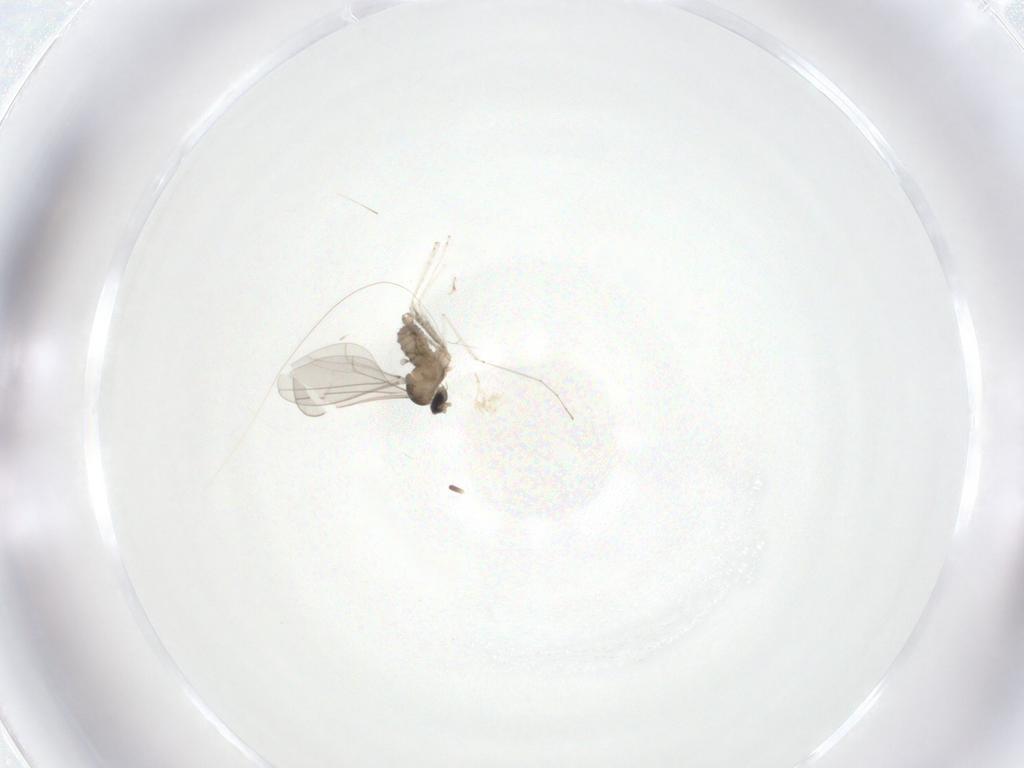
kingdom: Animalia
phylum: Arthropoda
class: Insecta
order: Diptera
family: Cecidomyiidae
